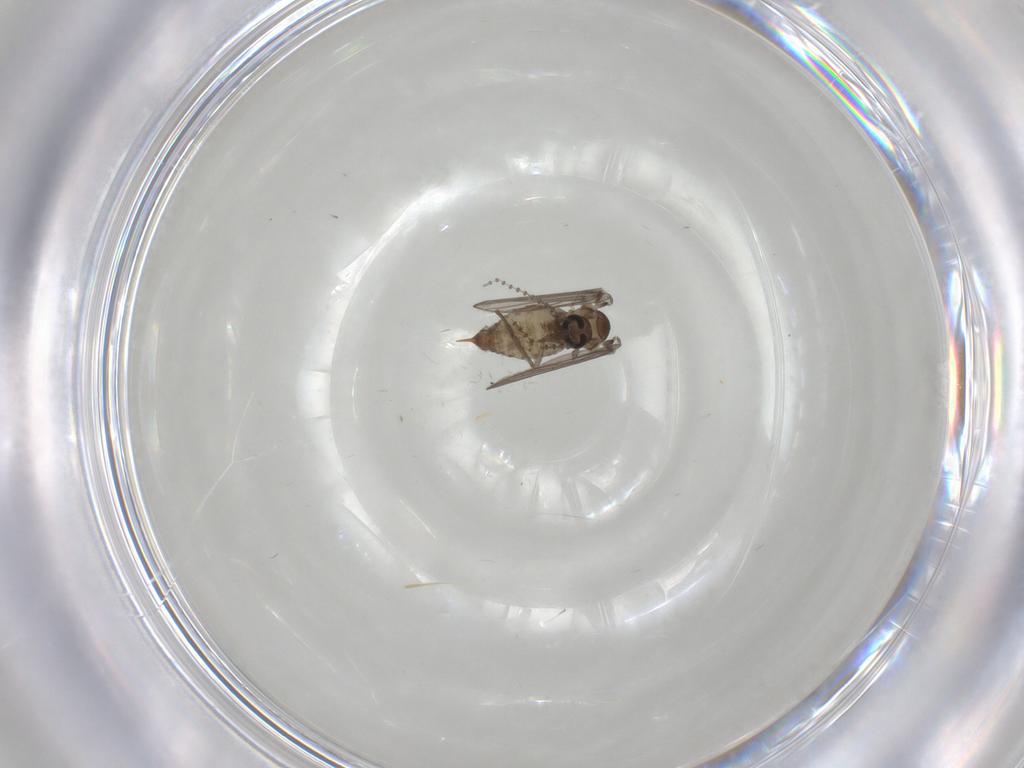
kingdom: Animalia
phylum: Arthropoda
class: Insecta
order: Diptera
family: Psychodidae
